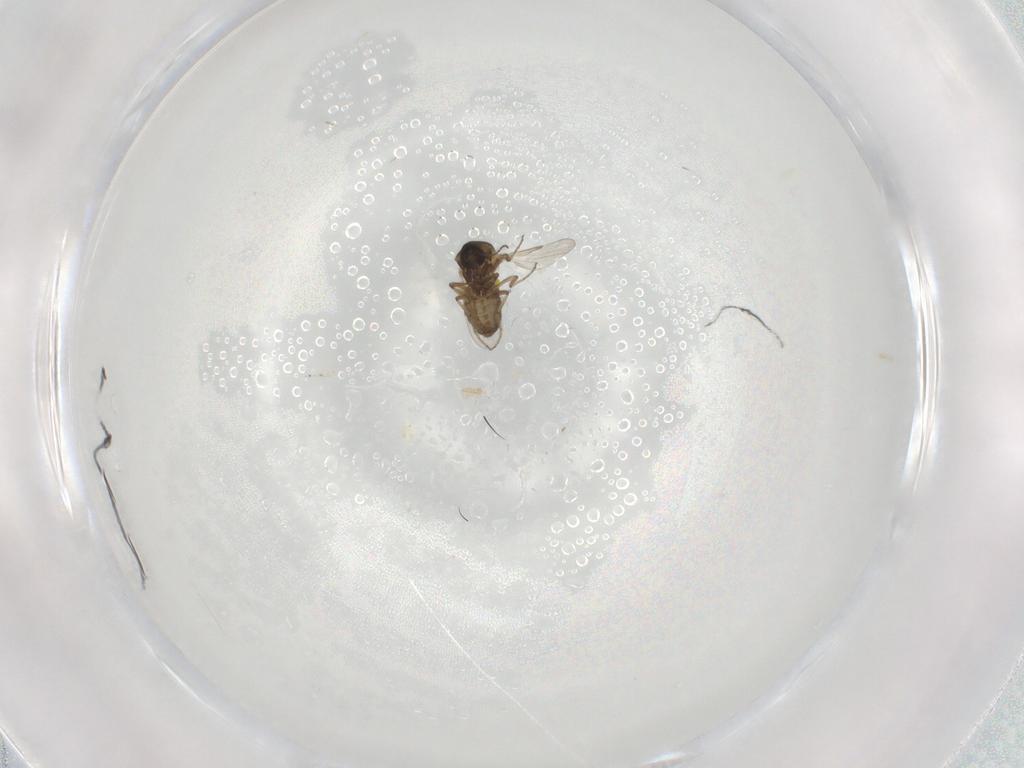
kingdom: Animalia
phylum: Arthropoda
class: Insecta
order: Diptera
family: Ceratopogonidae
